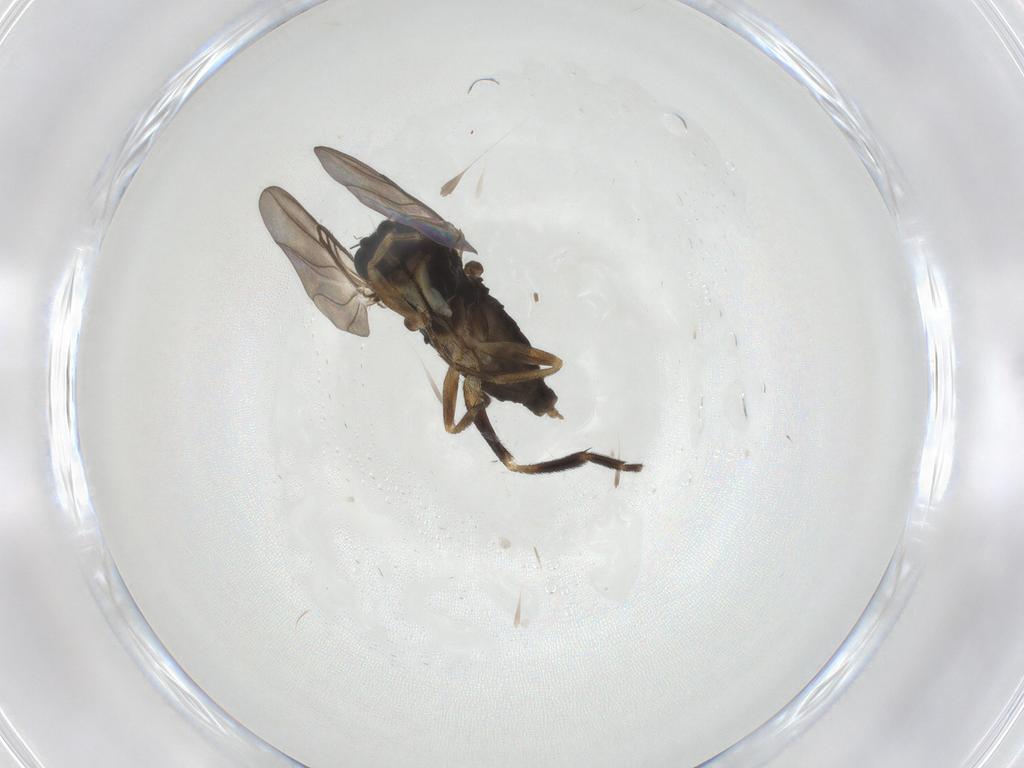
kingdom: Animalia
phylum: Arthropoda
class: Insecta
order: Diptera
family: Phoridae
